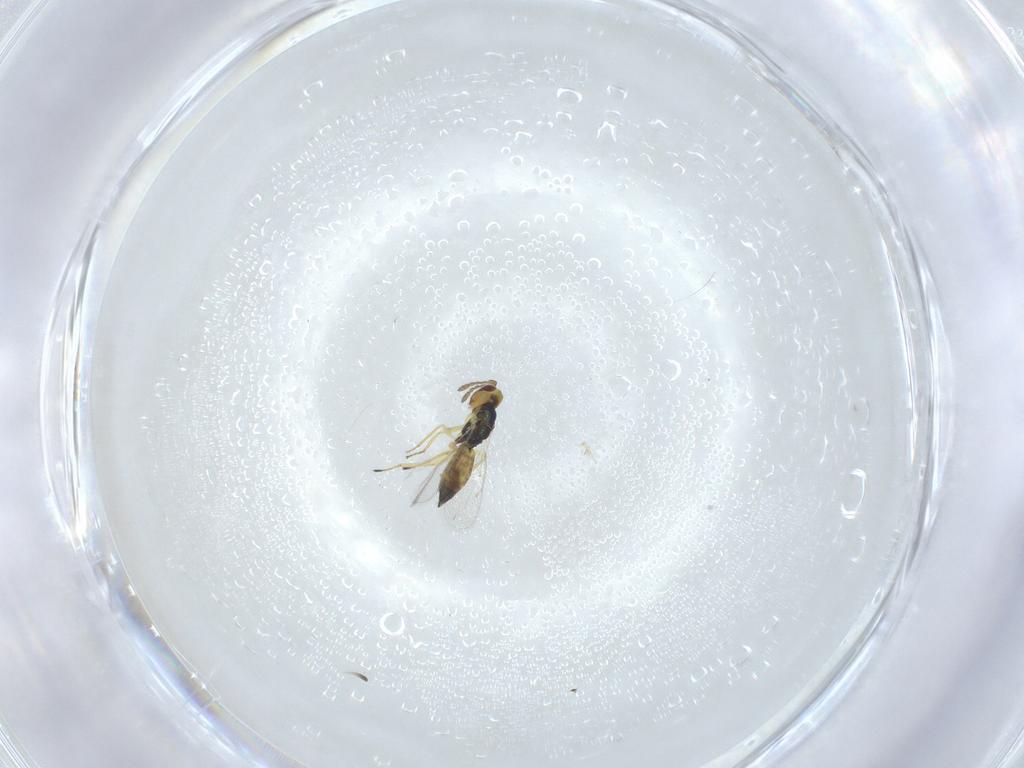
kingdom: Animalia
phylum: Arthropoda
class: Insecta
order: Hymenoptera
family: Eulophidae
